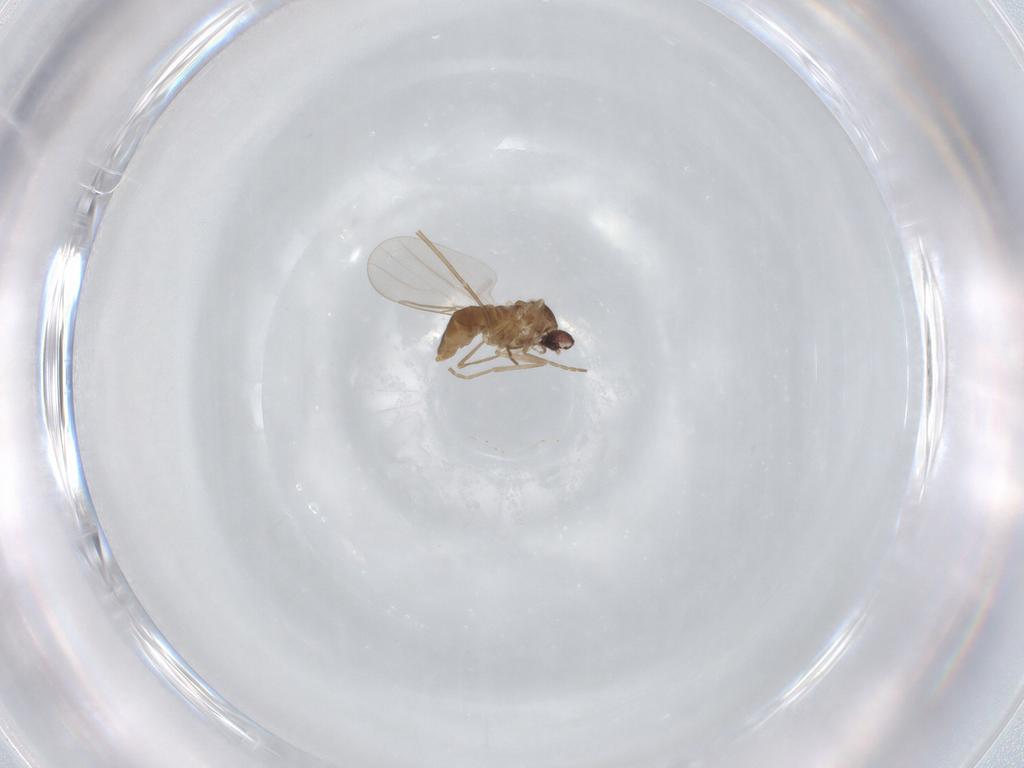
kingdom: Animalia
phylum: Arthropoda
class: Insecta
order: Diptera
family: Cecidomyiidae
